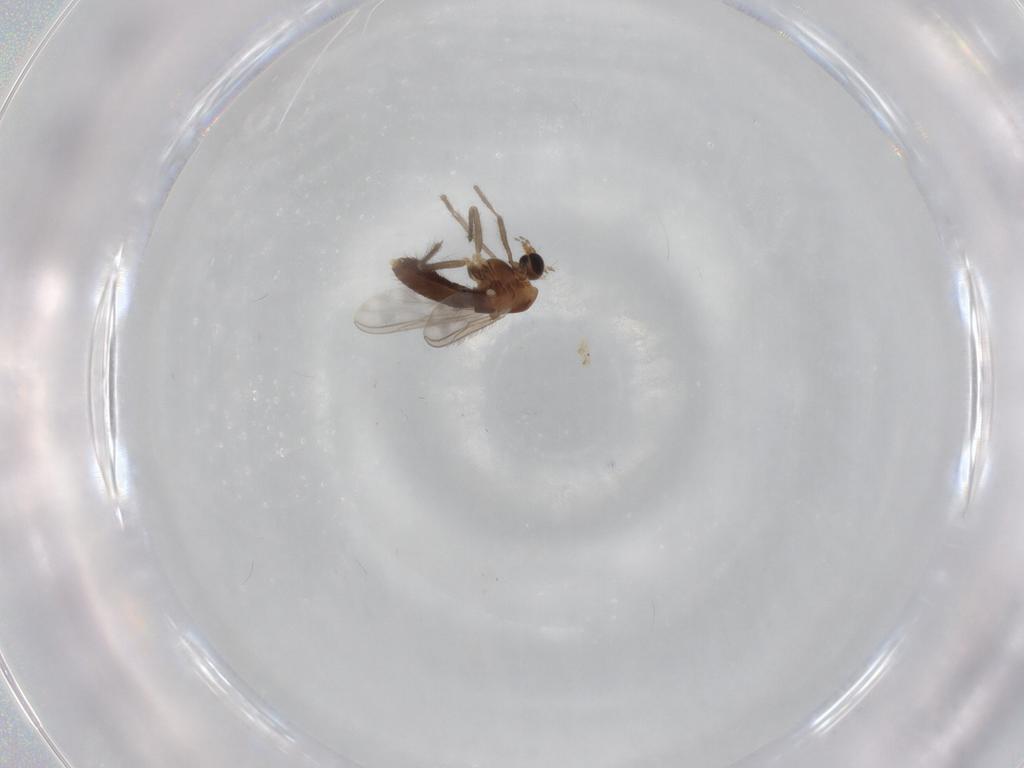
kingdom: Animalia
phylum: Arthropoda
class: Insecta
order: Diptera
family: Chironomidae
